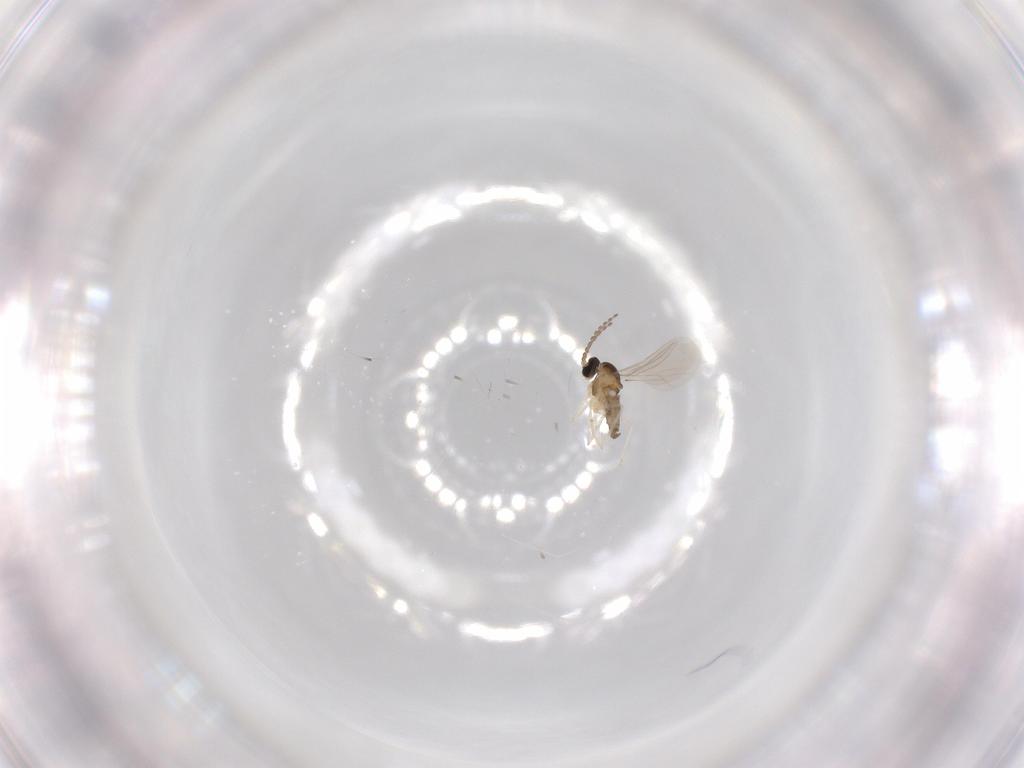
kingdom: Animalia
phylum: Arthropoda
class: Insecta
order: Diptera
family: Cecidomyiidae
